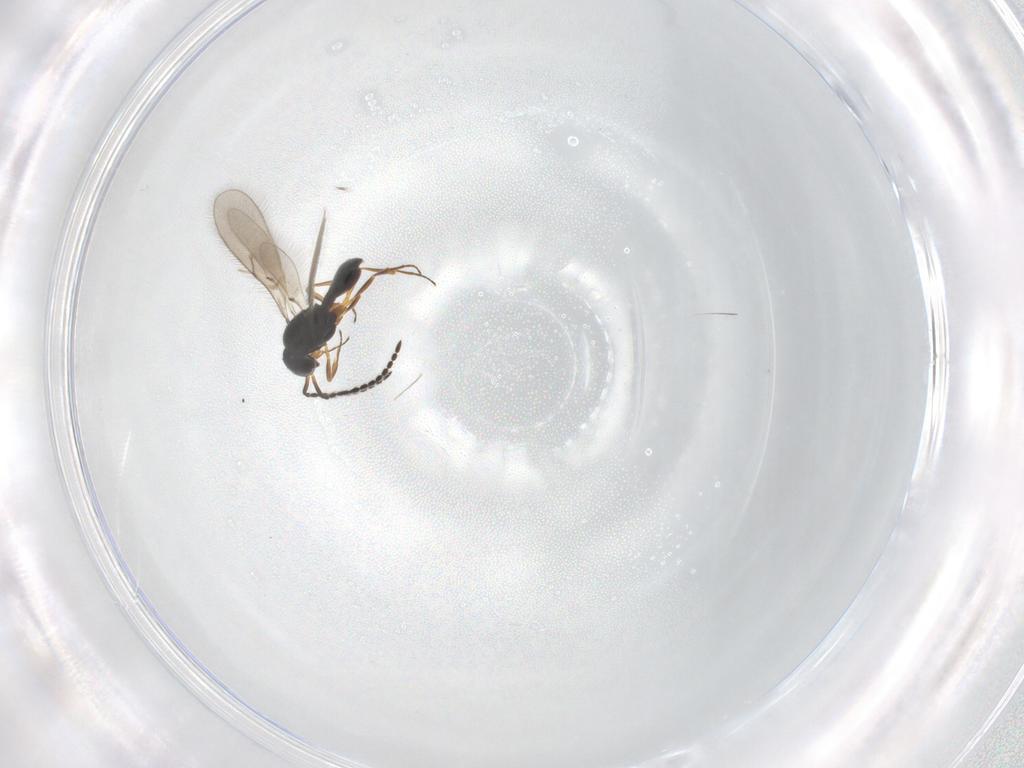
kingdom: Animalia
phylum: Arthropoda
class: Insecta
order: Hymenoptera
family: Scelionidae
